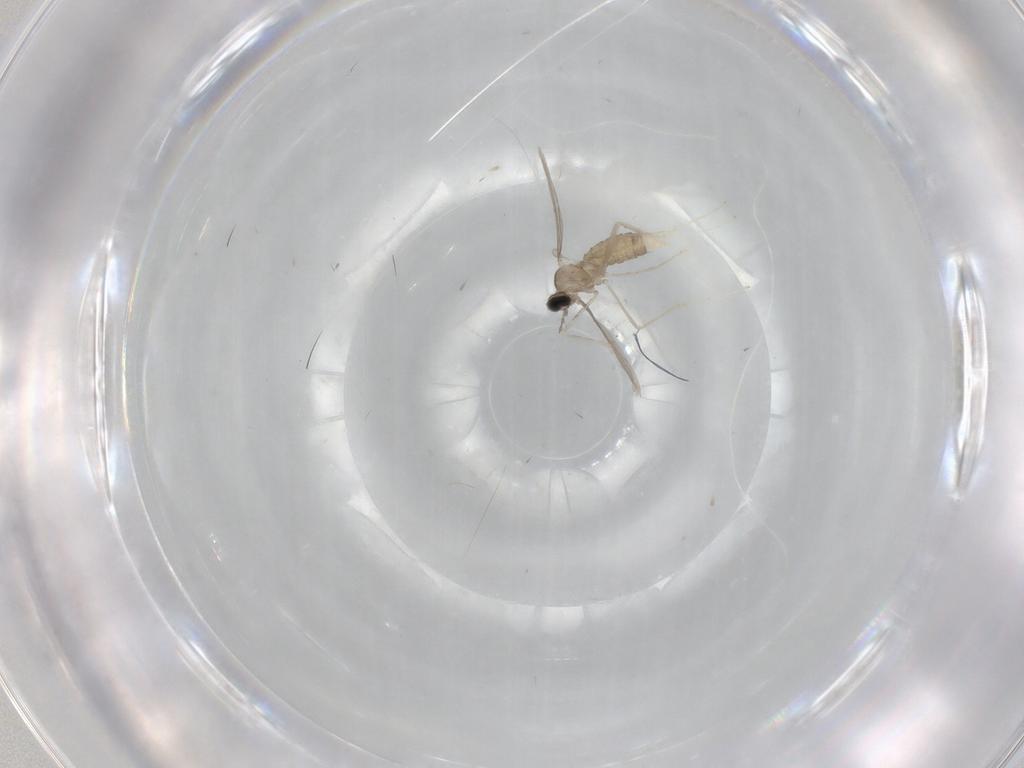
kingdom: Animalia
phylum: Arthropoda
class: Insecta
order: Diptera
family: Cecidomyiidae
